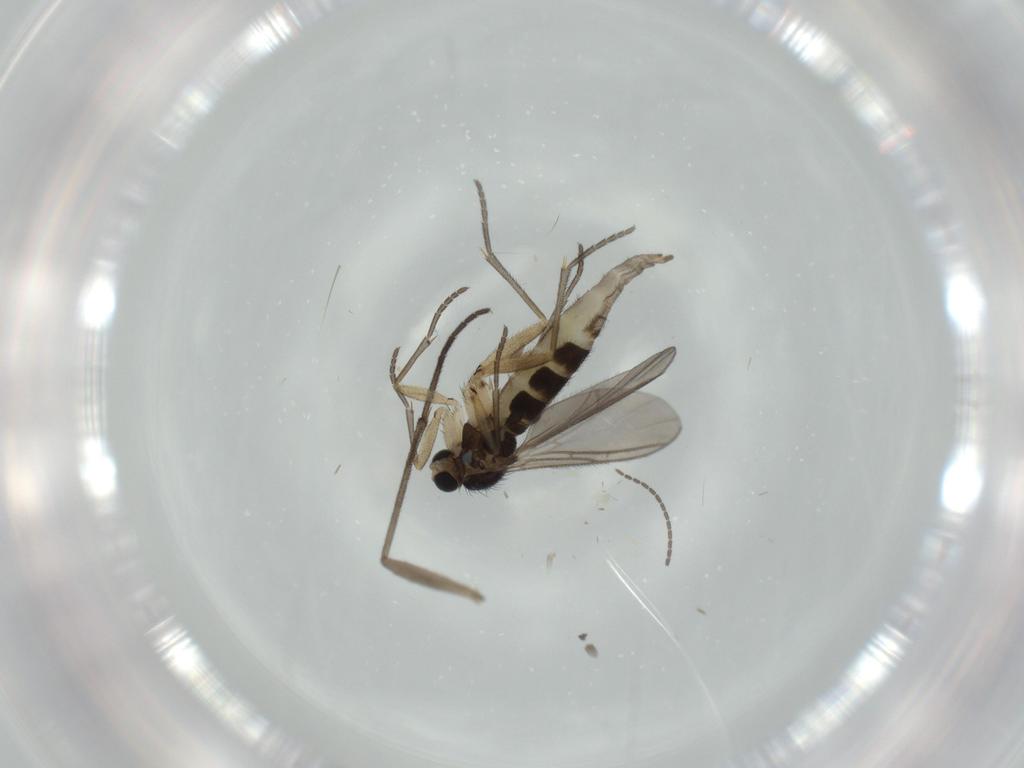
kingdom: Animalia
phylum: Arthropoda
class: Insecta
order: Diptera
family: Sciaridae
